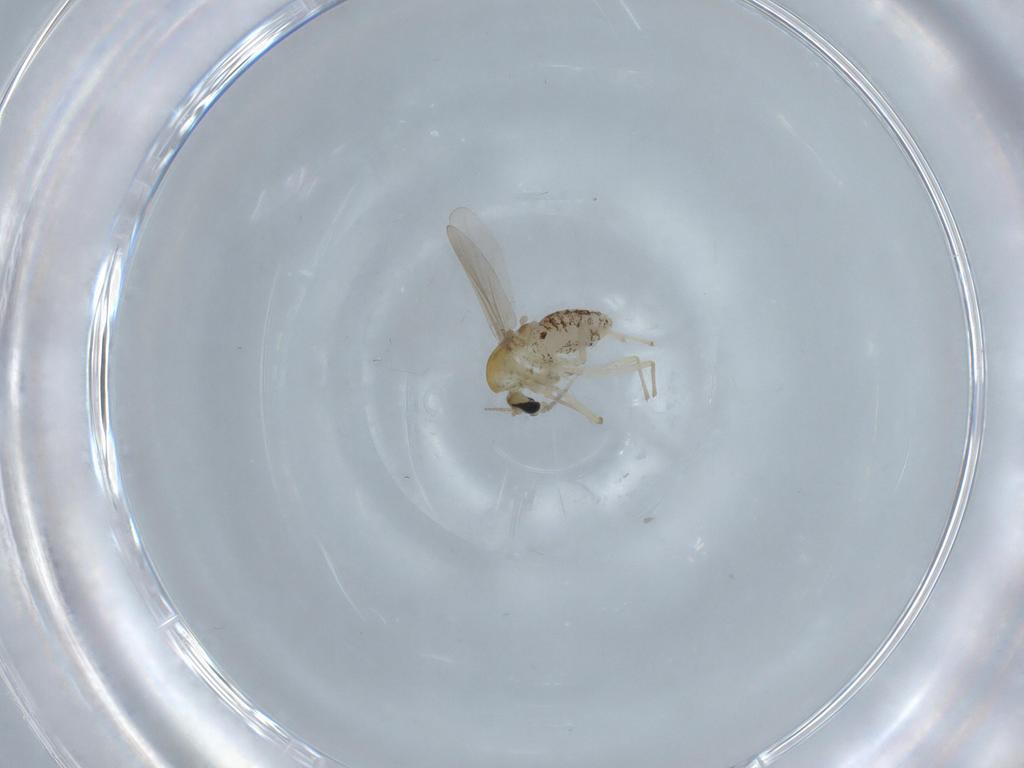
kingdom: Animalia
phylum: Arthropoda
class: Insecta
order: Diptera
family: Chironomidae
